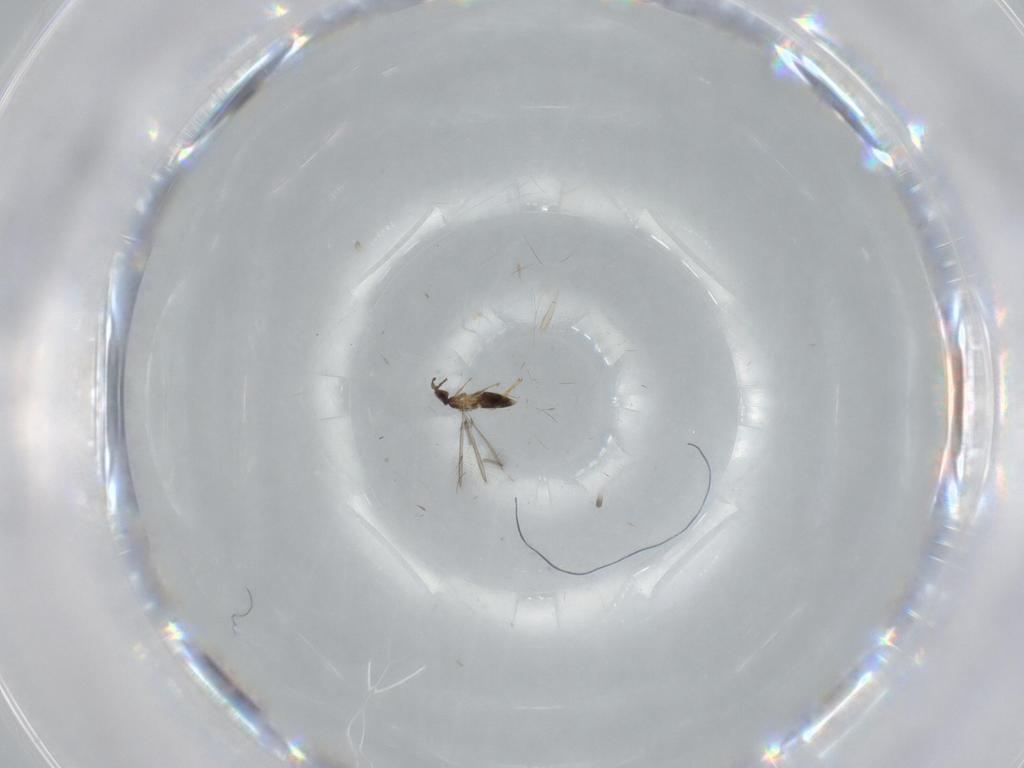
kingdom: Animalia
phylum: Arthropoda
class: Insecta
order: Hymenoptera
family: Mymaridae
